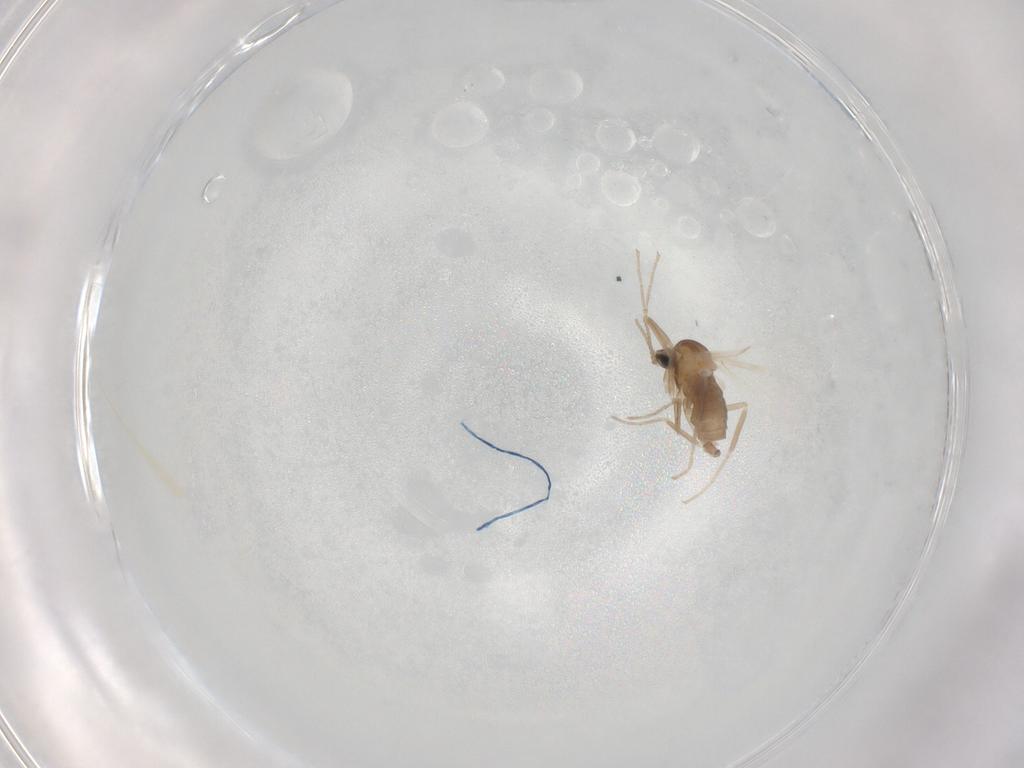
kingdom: Animalia
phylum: Arthropoda
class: Insecta
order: Diptera
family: Cecidomyiidae
